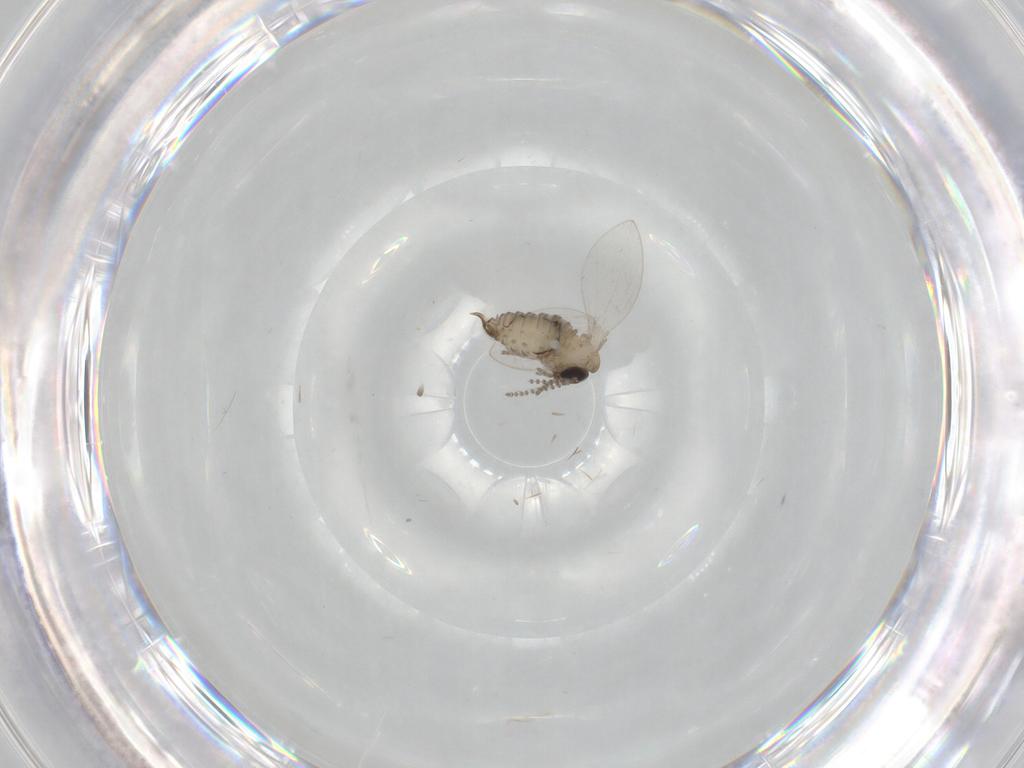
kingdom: Animalia
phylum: Arthropoda
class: Insecta
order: Diptera
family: Psychodidae
